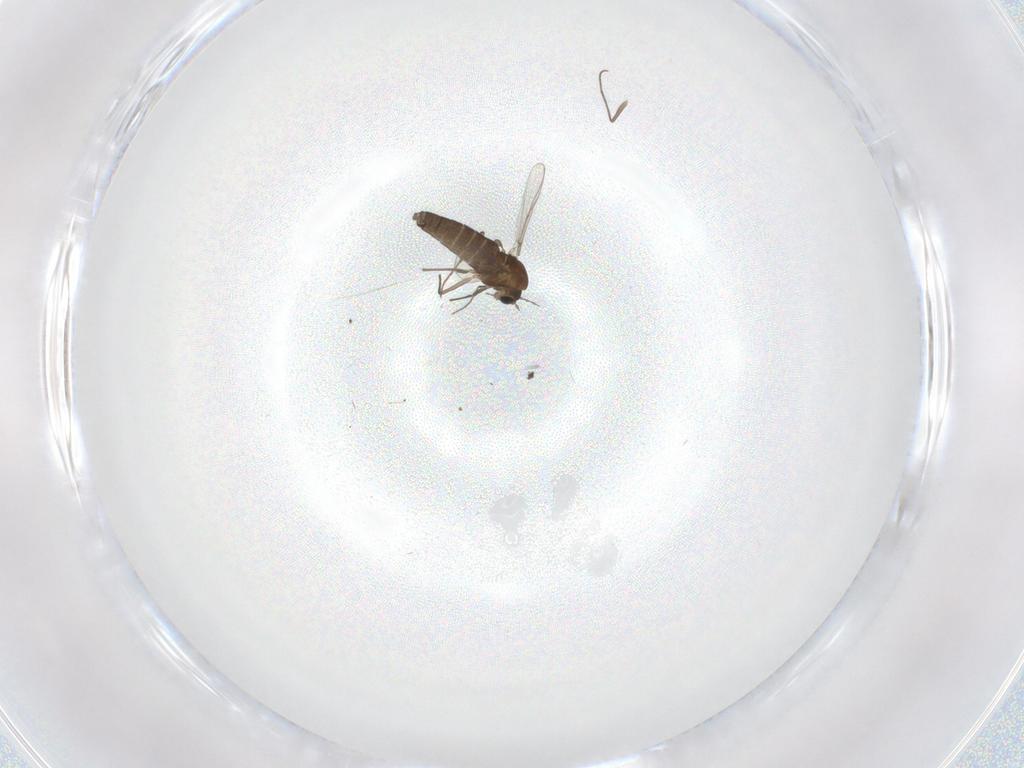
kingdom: Animalia
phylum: Arthropoda
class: Insecta
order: Diptera
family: Chironomidae
